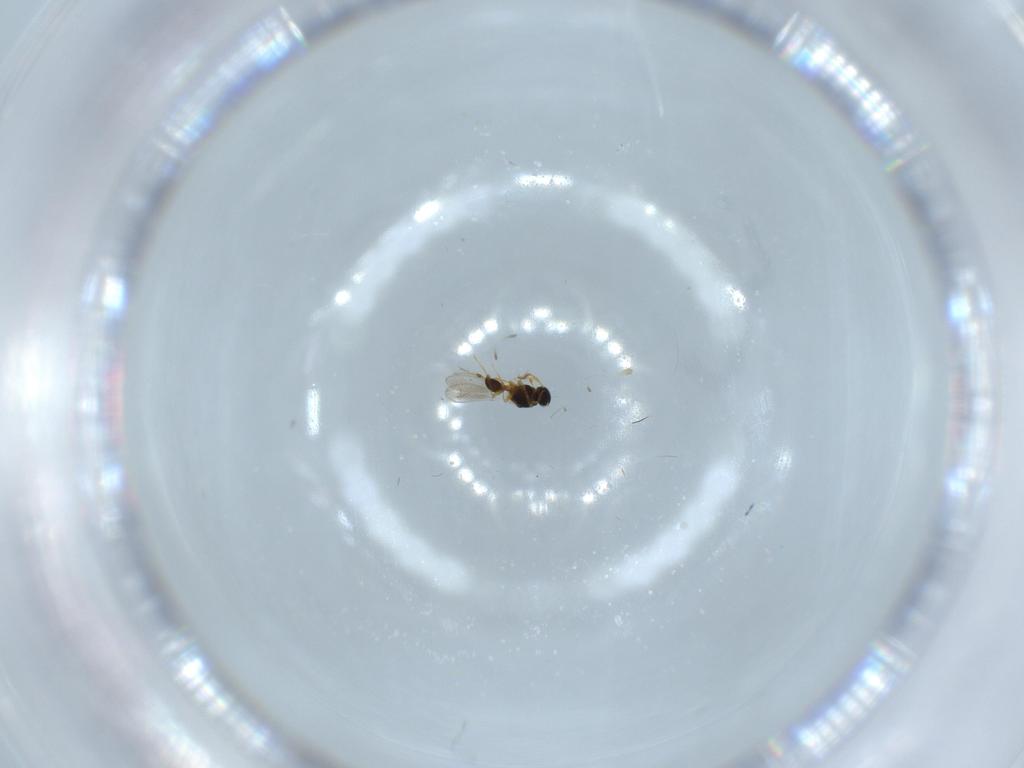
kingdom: Animalia
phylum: Arthropoda
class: Insecta
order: Hymenoptera
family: Platygastridae
